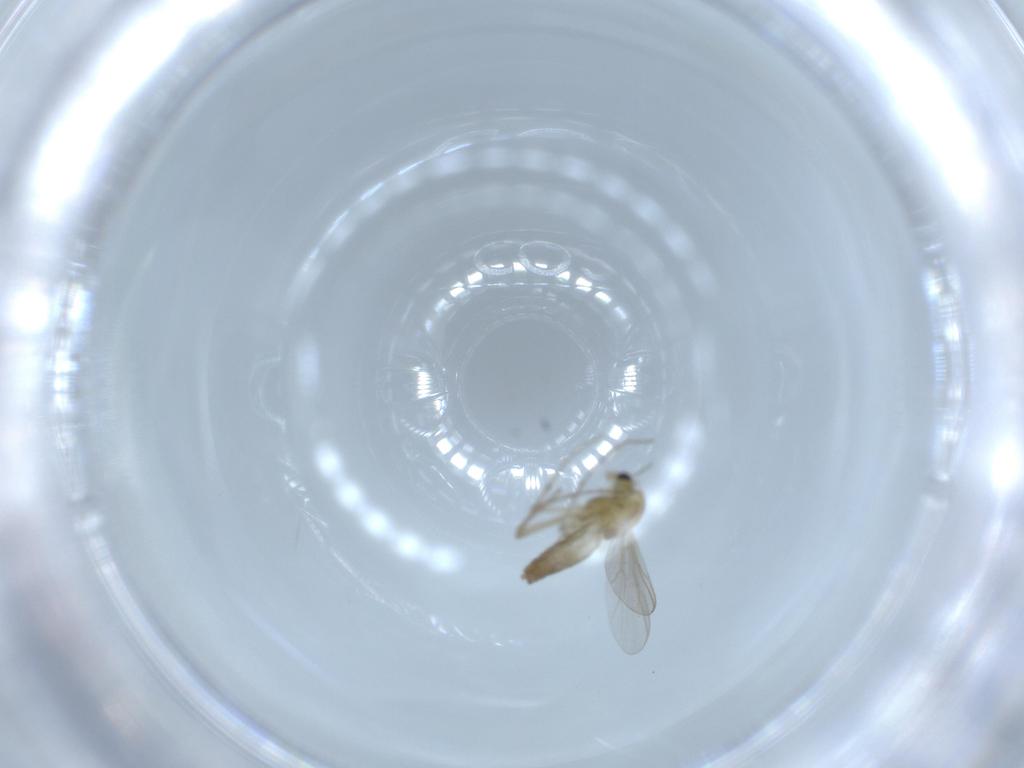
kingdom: Animalia
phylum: Arthropoda
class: Insecta
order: Diptera
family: Chironomidae
